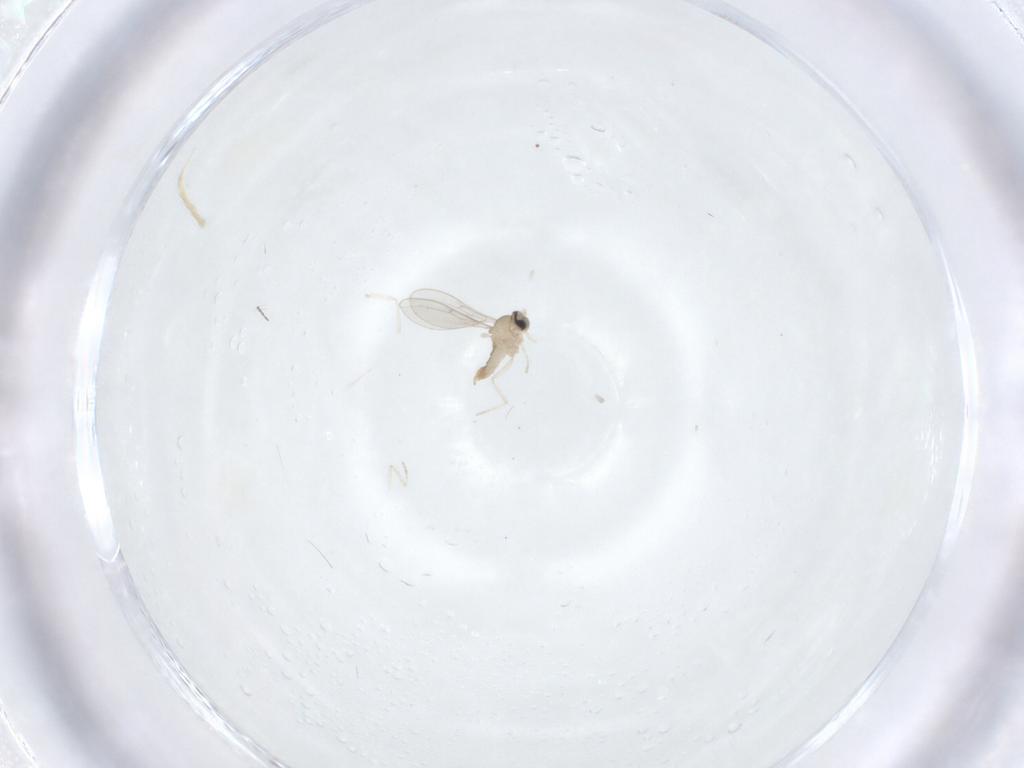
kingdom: Animalia
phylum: Arthropoda
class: Insecta
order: Diptera
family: Cecidomyiidae
